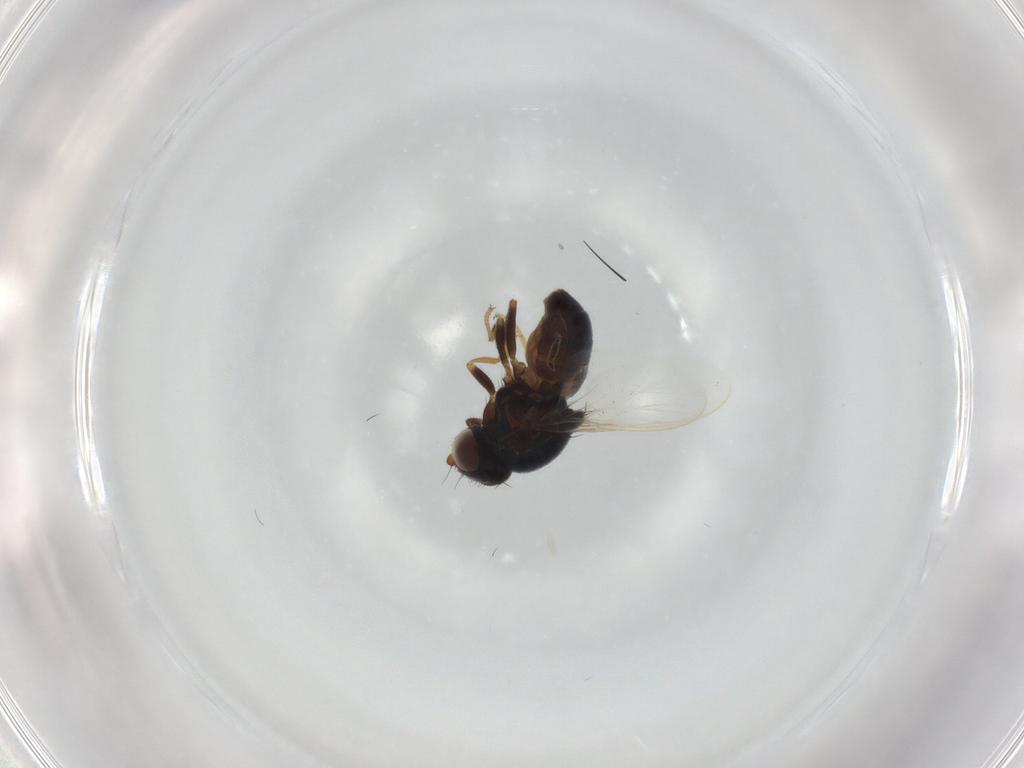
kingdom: Animalia
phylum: Arthropoda
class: Insecta
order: Diptera
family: Chloropidae
